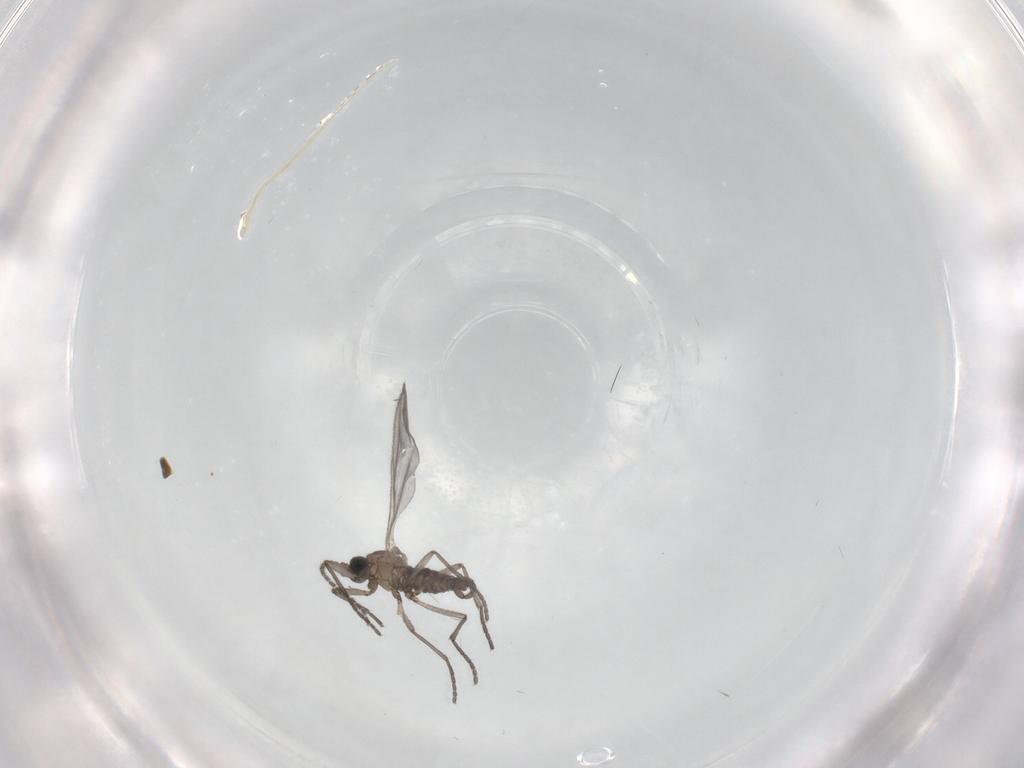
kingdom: Animalia
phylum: Arthropoda
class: Insecta
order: Diptera
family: Sciaridae
